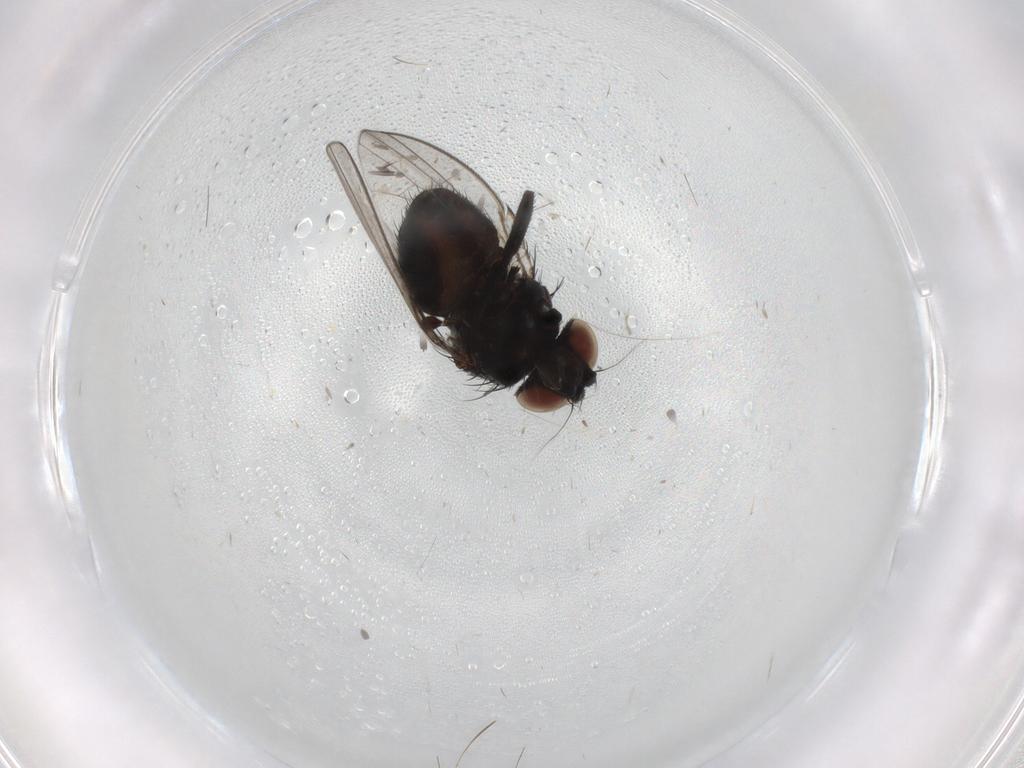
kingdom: Animalia
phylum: Arthropoda
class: Insecta
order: Diptera
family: Milichiidae
